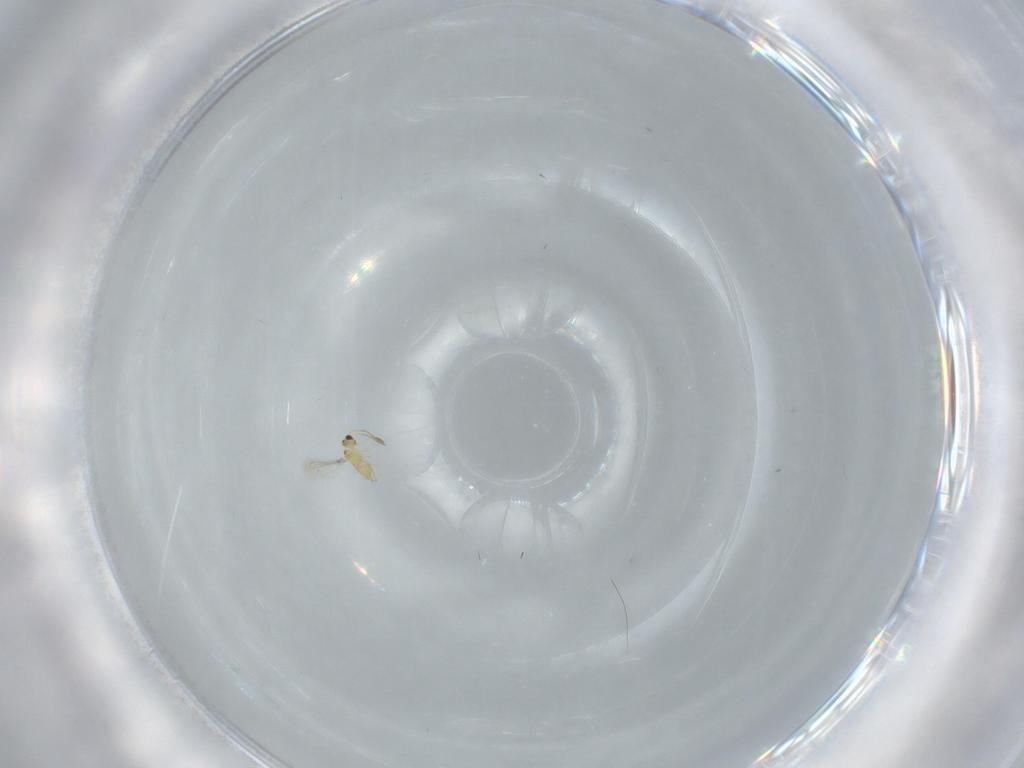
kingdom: Animalia
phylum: Arthropoda
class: Insecta
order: Hymenoptera
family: Mymaridae
